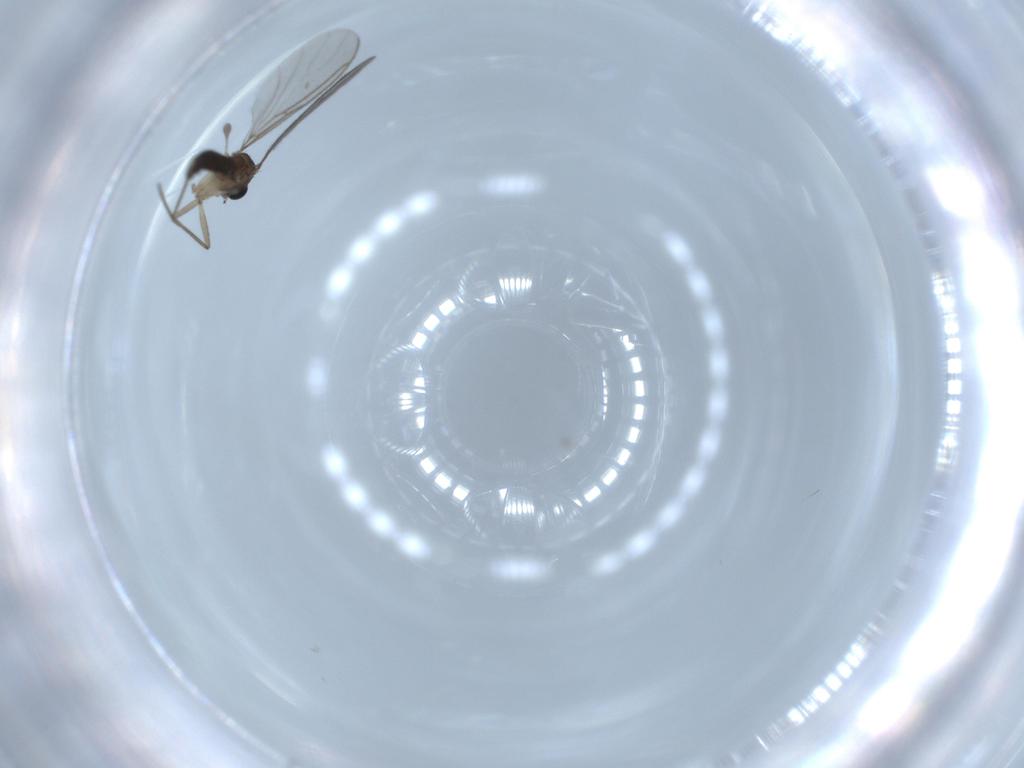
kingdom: Animalia
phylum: Arthropoda
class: Insecta
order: Diptera
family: Sciaridae
